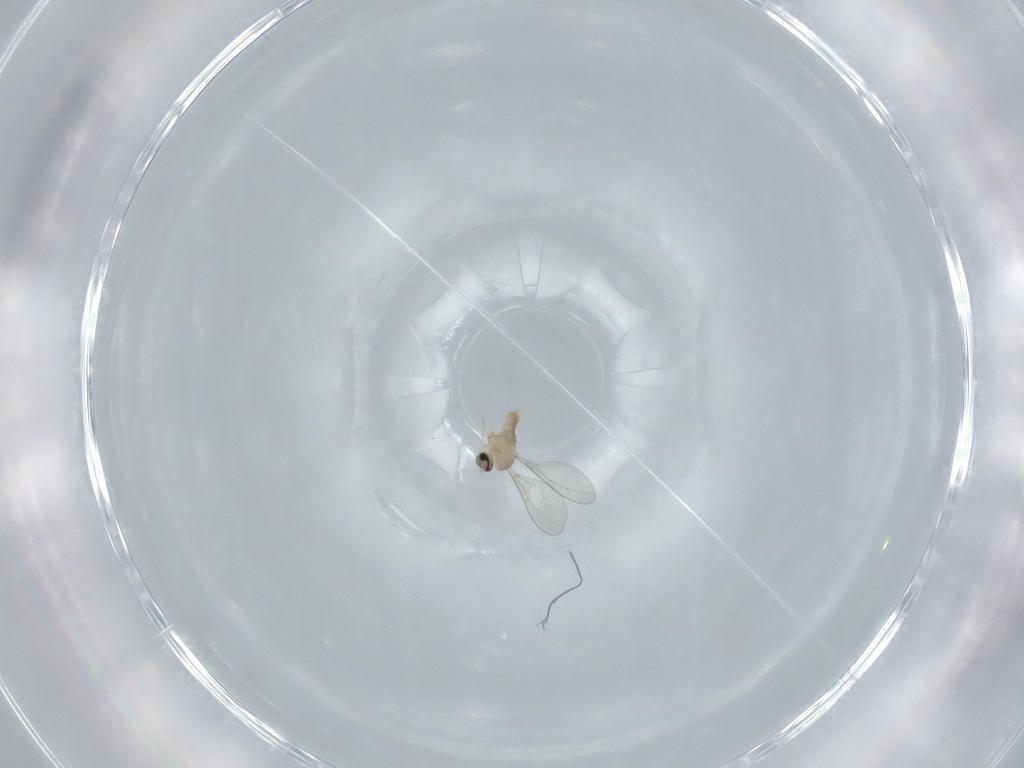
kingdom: Animalia
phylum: Arthropoda
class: Insecta
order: Diptera
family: Cecidomyiidae
